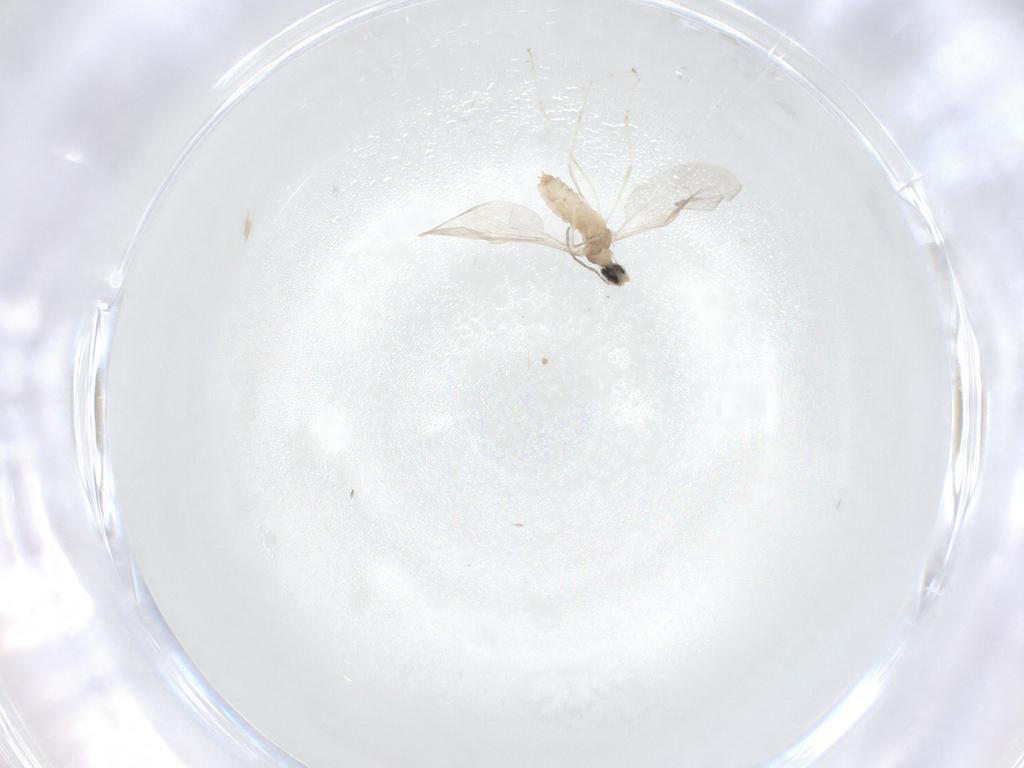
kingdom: Animalia
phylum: Arthropoda
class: Insecta
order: Diptera
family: Cecidomyiidae
